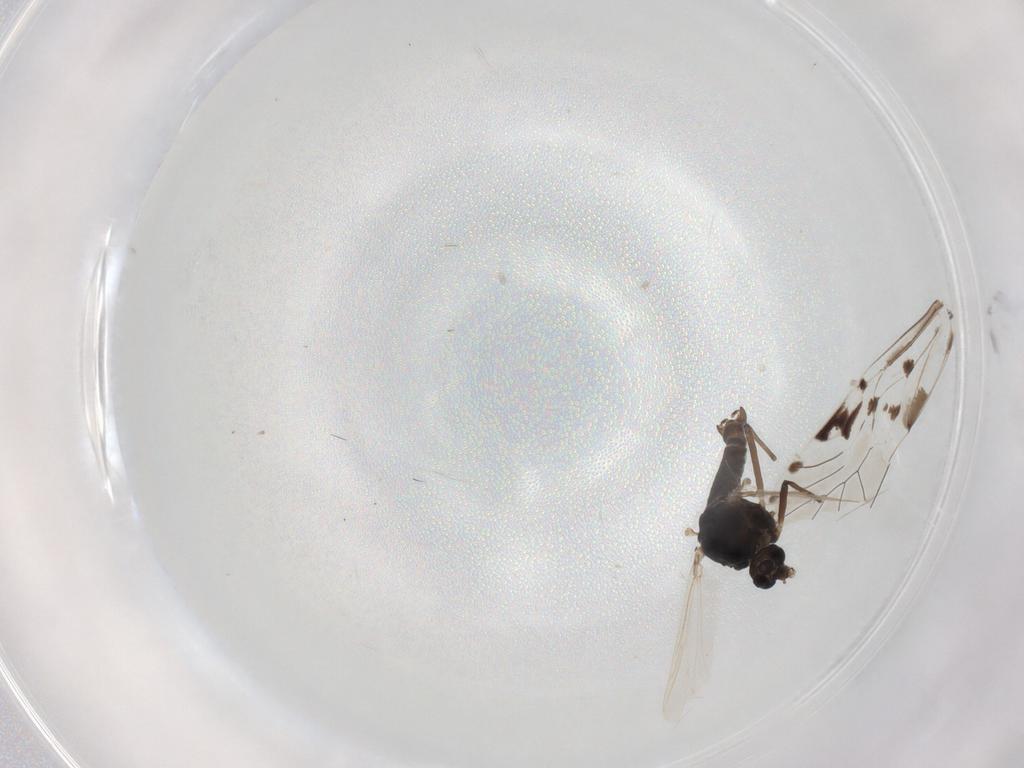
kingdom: Animalia
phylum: Arthropoda
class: Insecta
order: Diptera
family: Chironomidae
